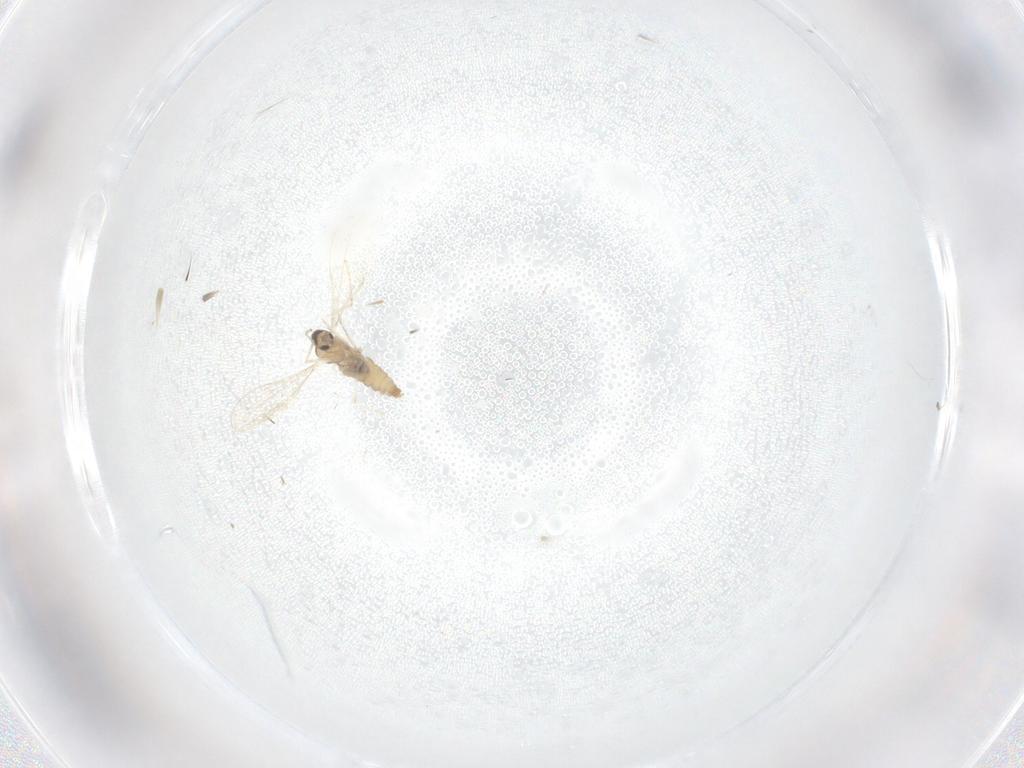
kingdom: Animalia
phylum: Arthropoda
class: Insecta
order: Diptera
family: Cecidomyiidae
